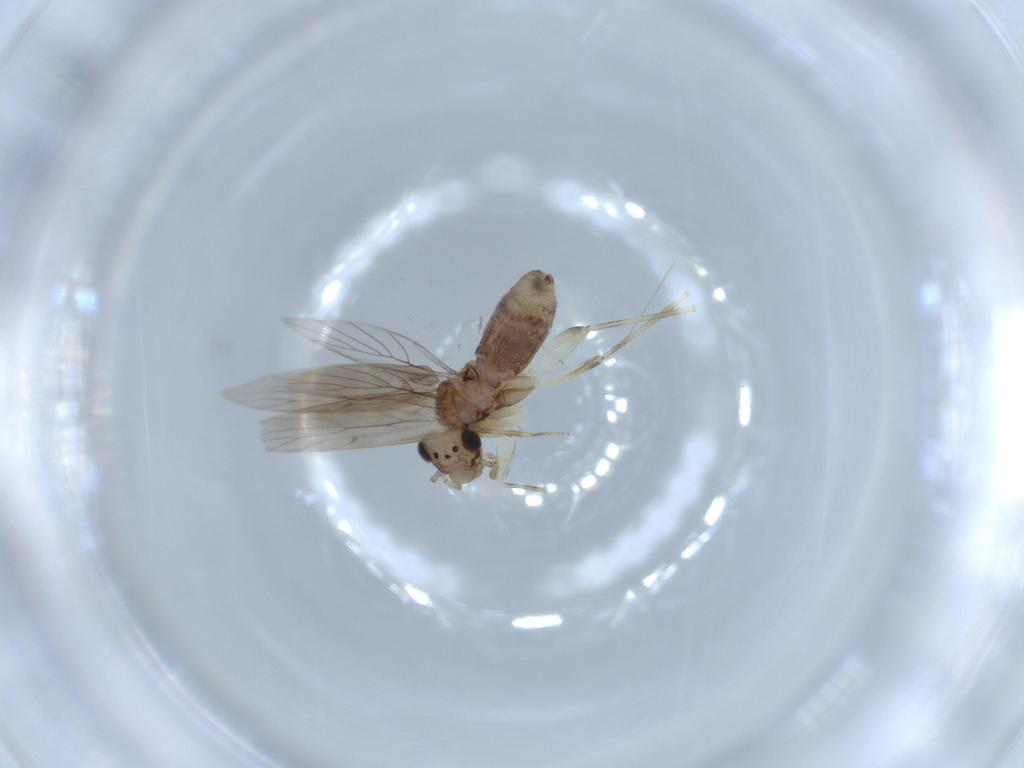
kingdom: Animalia
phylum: Arthropoda
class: Insecta
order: Psocodea
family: Lepidopsocidae
